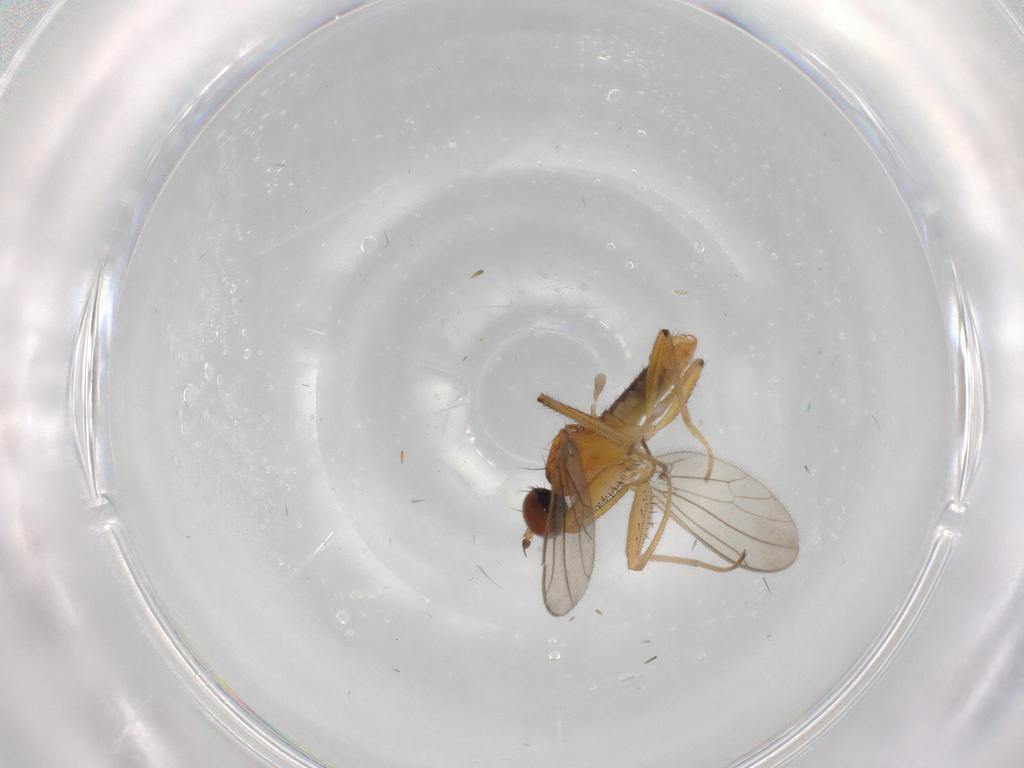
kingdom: Animalia
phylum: Arthropoda
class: Insecta
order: Diptera
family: Empididae
